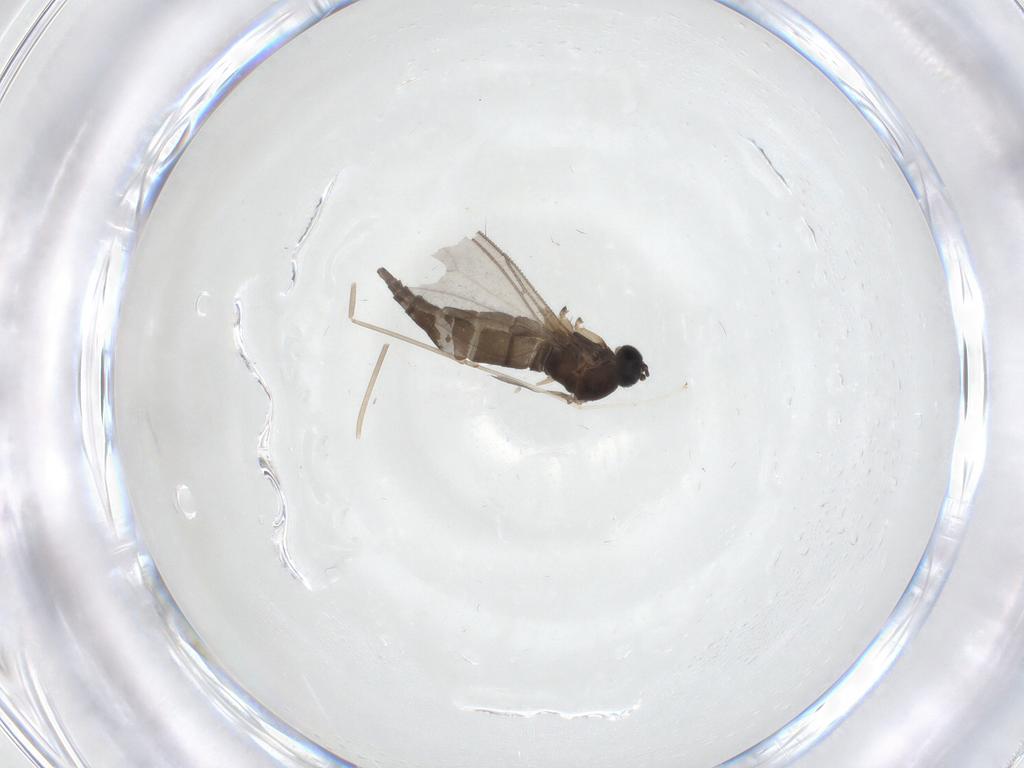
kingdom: Animalia
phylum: Arthropoda
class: Insecta
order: Diptera
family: Sciaridae
